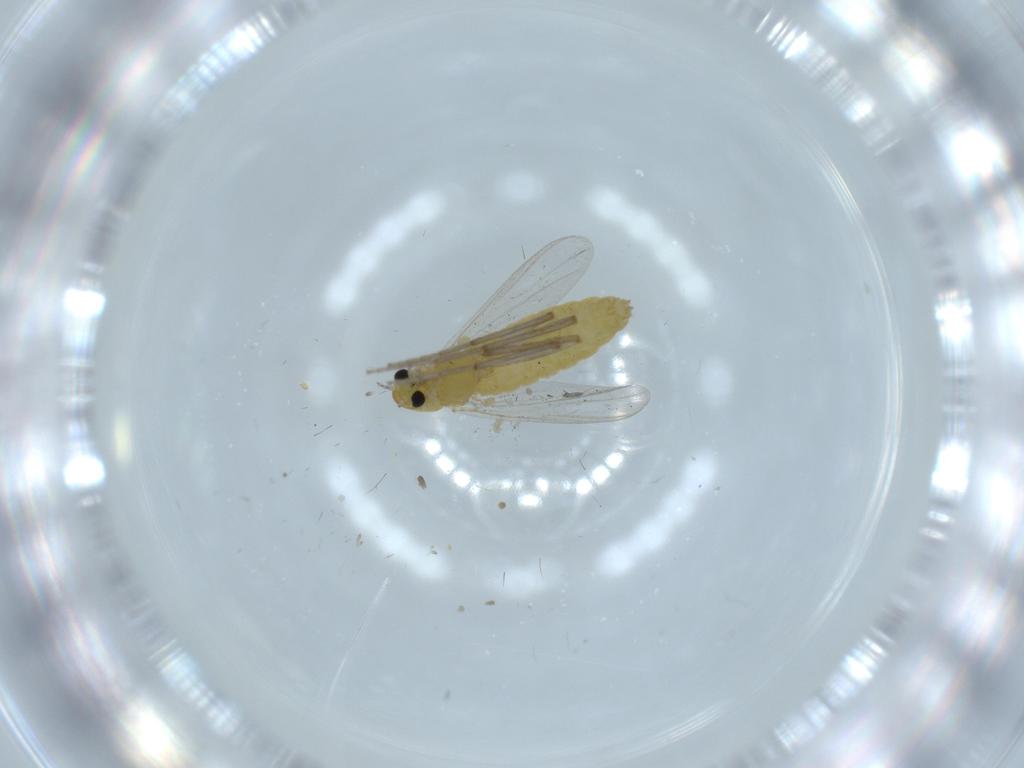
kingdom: Animalia
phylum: Arthropoda
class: Insecta
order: Diptera
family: Chironomidae
